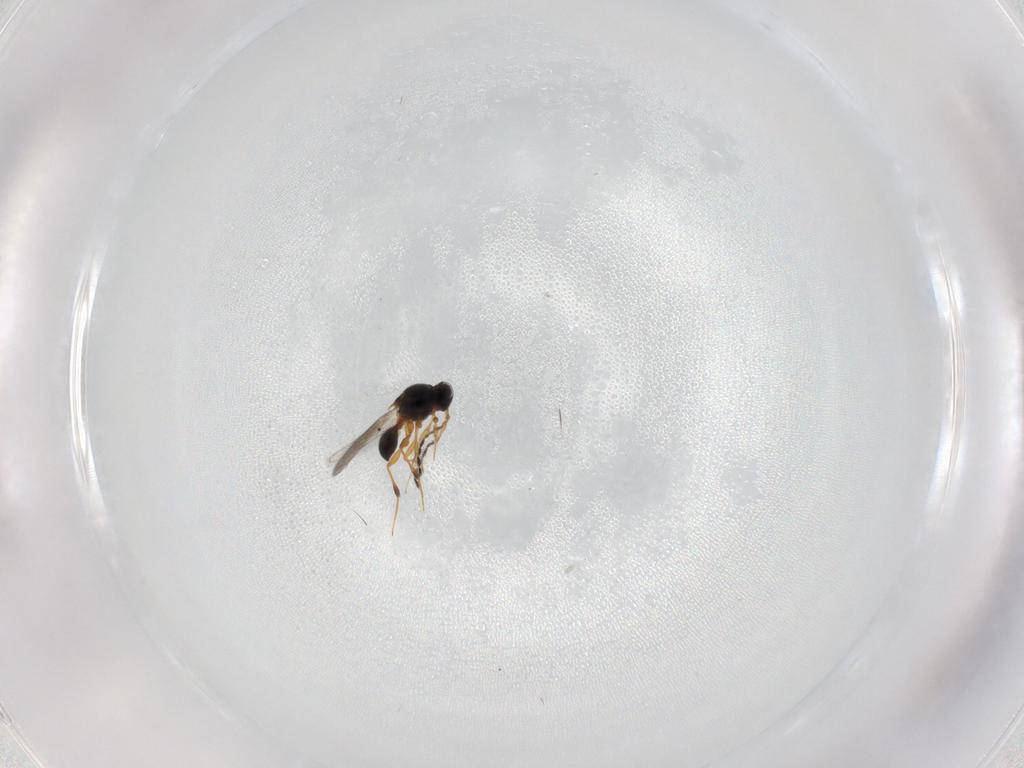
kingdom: Animalia
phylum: Arthropoda
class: Insecta
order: Hymenoptera
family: Platygastridae
